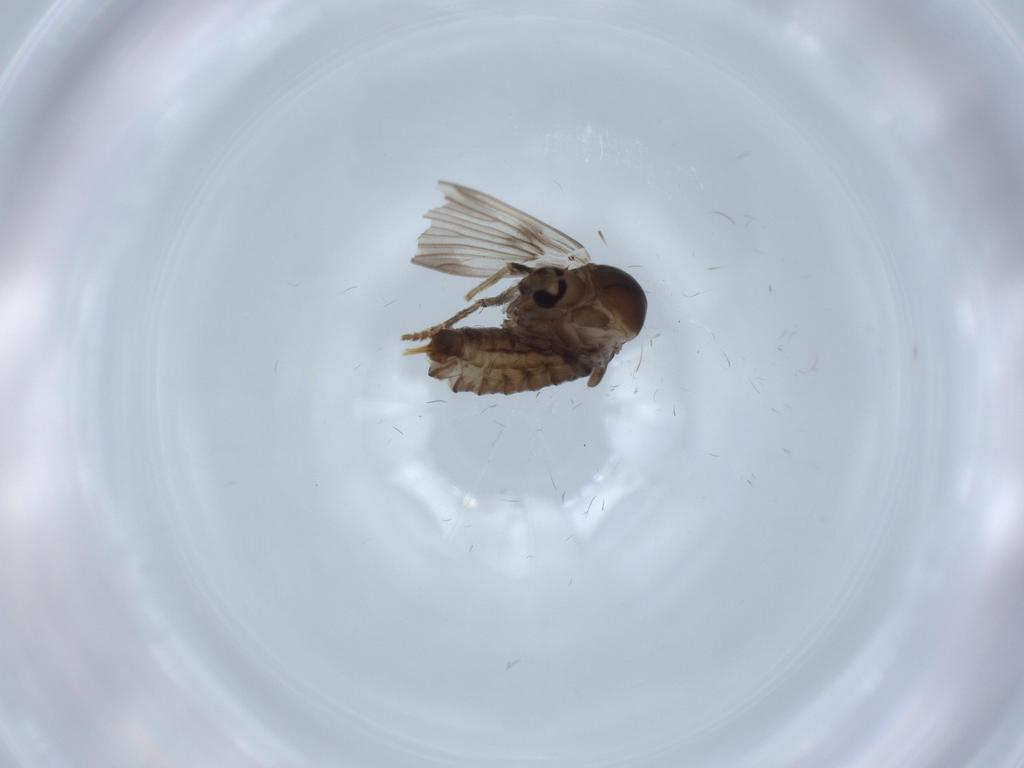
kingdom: Animalia
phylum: Arthropoda
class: Insecta
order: Diptera
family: Psychodidae
